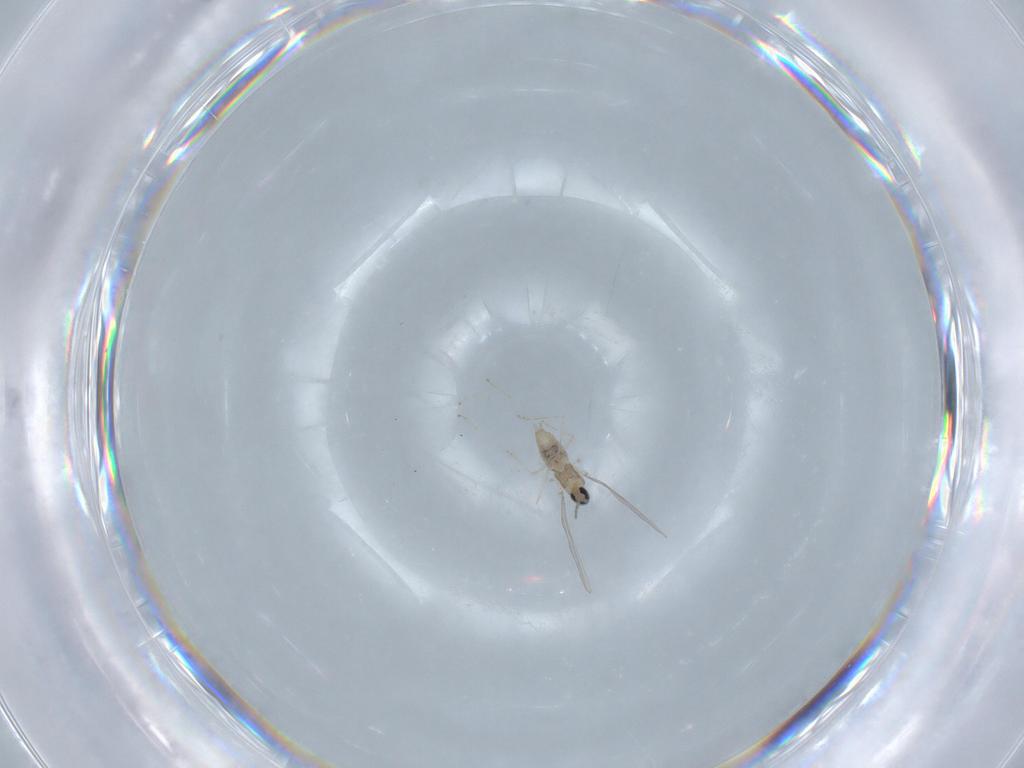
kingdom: Animalia
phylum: Arthropoda
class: Insecta
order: Diptera
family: Cecidomyiidae
